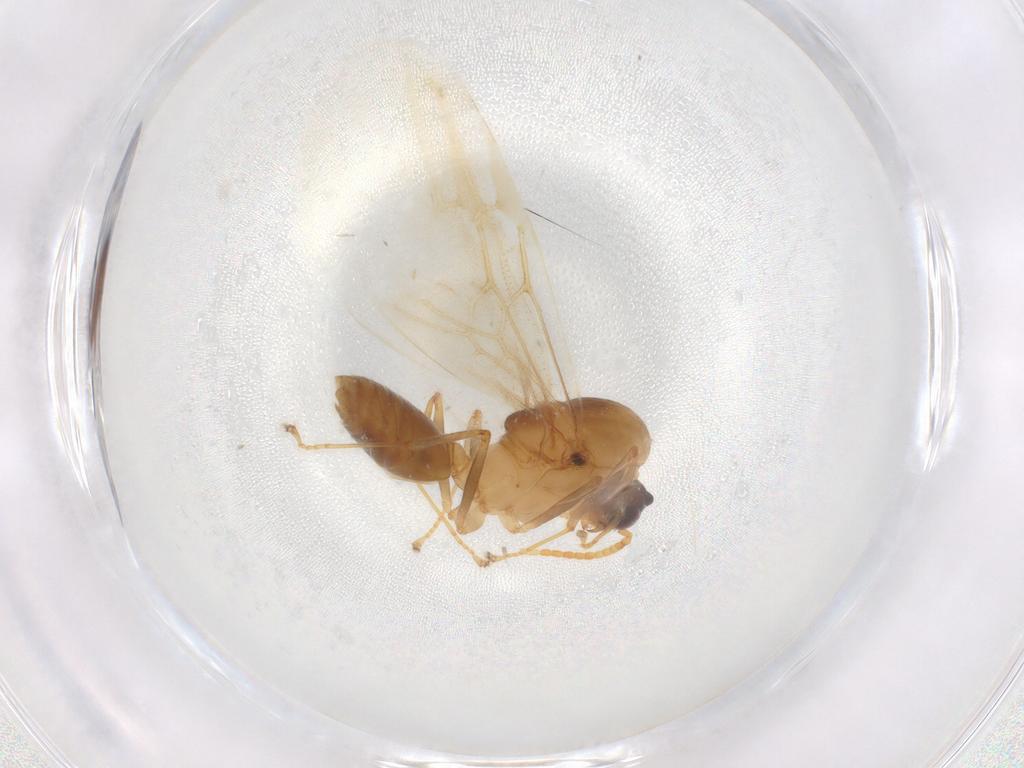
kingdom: Animalia
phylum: Arthropoda
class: Insecta
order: Hymenoptera
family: Formicidae
